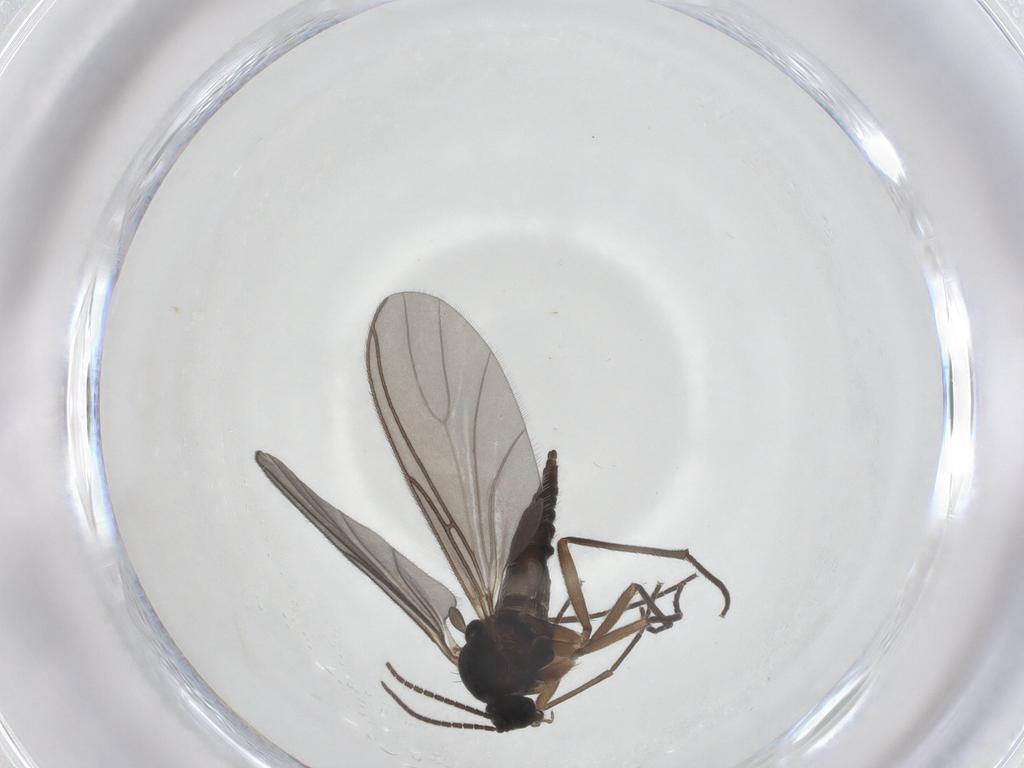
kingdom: Animalia
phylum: Arthropoda
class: Insecta
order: Diptera
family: Sciaridae
